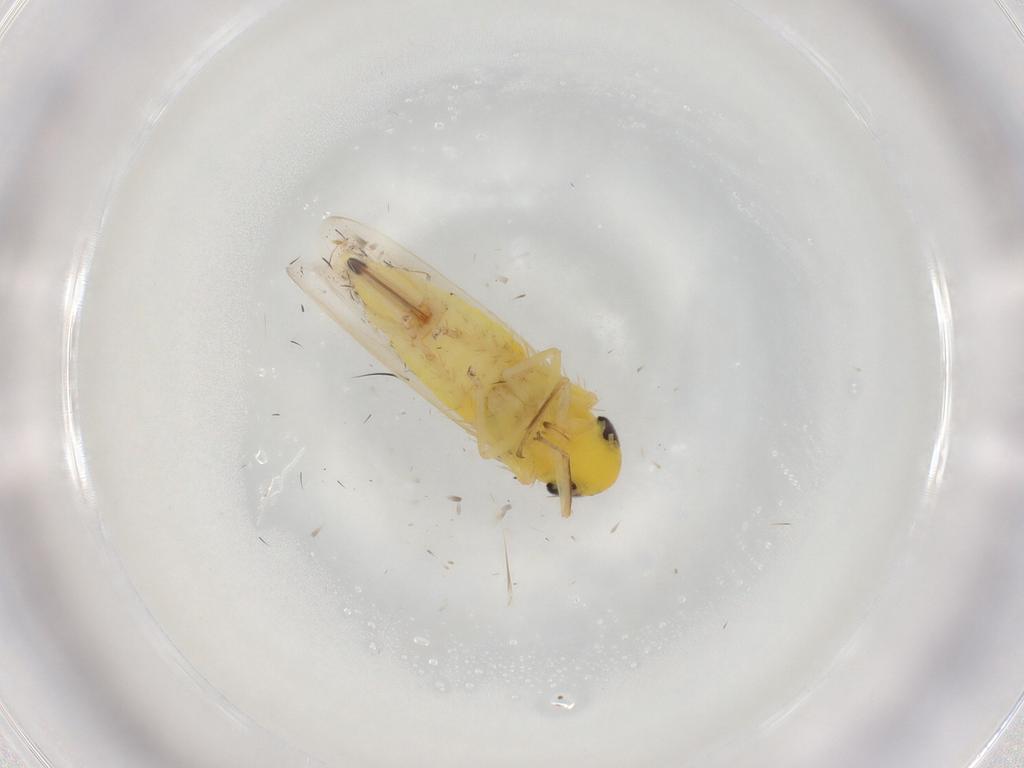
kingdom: Animalia
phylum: Arthropoda
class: Insecta
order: Hemiptera
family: Cicadellidae
